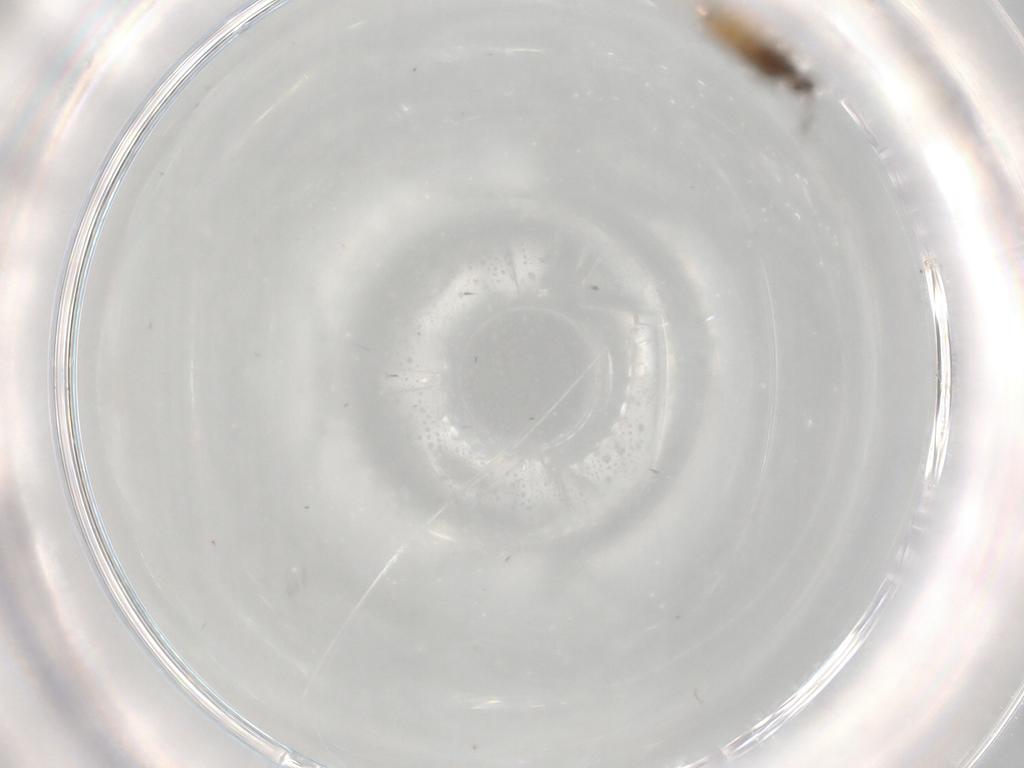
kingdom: Animalia
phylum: Arthropoda
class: Insecta
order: Lepidoptera
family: Noctuidae
